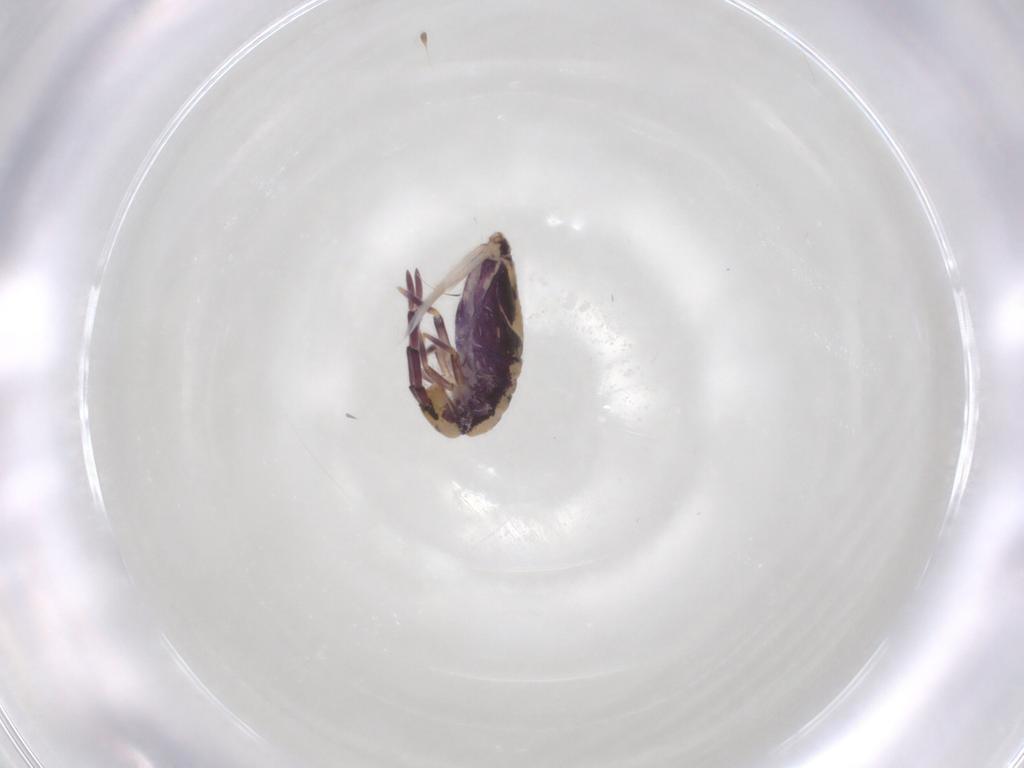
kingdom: Animalia
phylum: Arthropoda
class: Collembola
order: Entomobryomorpha
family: Entomobryidae
